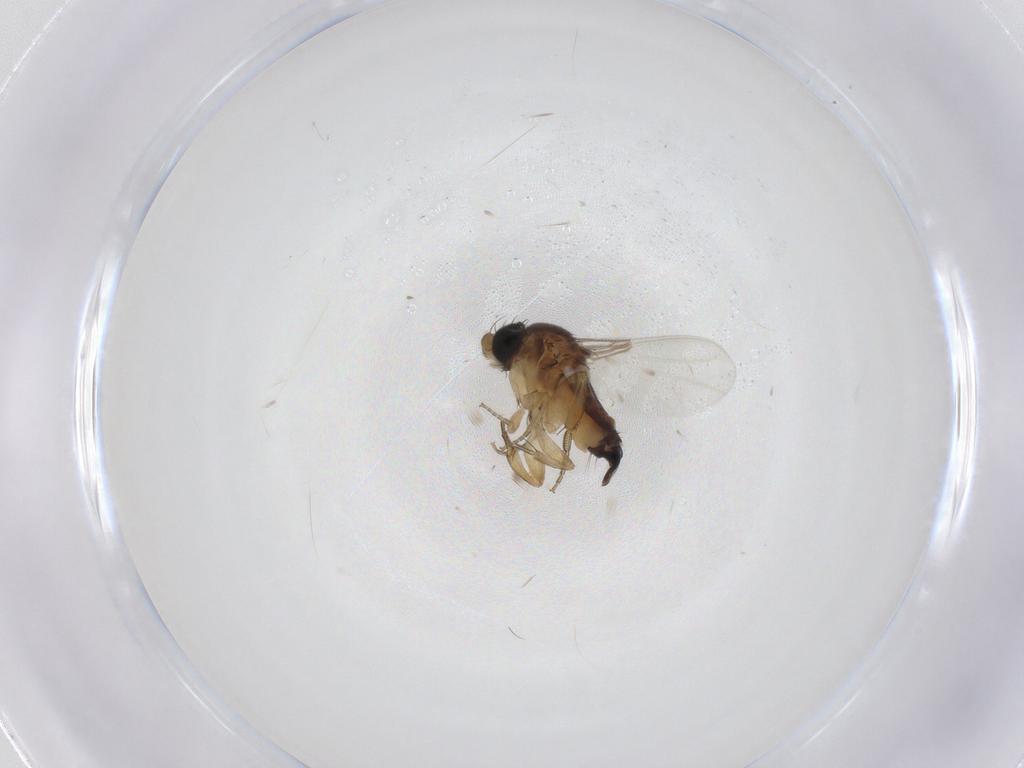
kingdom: Animalia
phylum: Arthropoda
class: Insecta
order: Diptera
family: Phoridae
